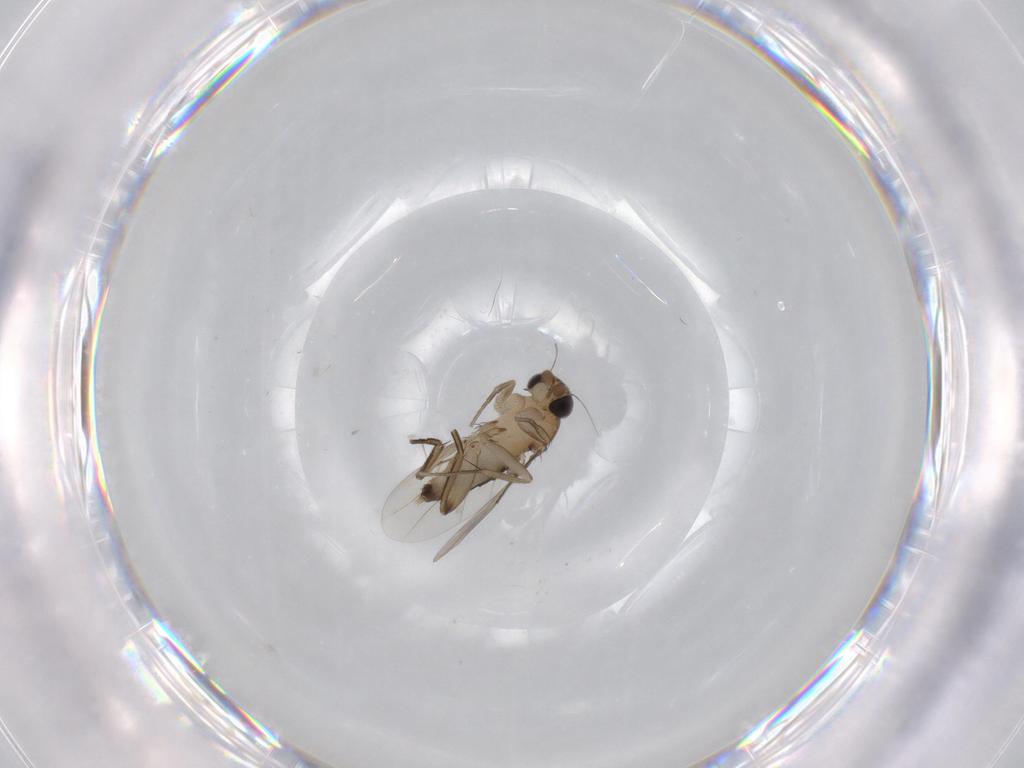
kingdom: Animalia
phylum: Arthropoda
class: Insecta
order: Diptera
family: Phoridae
